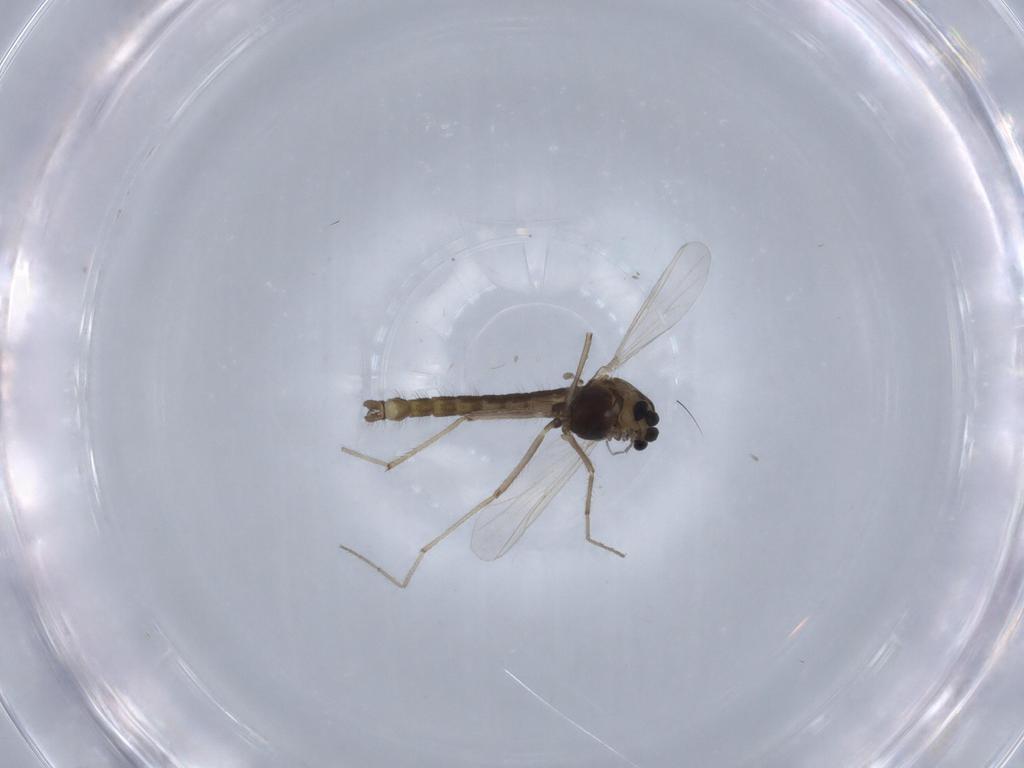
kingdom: Animalia
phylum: Arthropoda
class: Insecta
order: Diptera
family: Chironomidae
